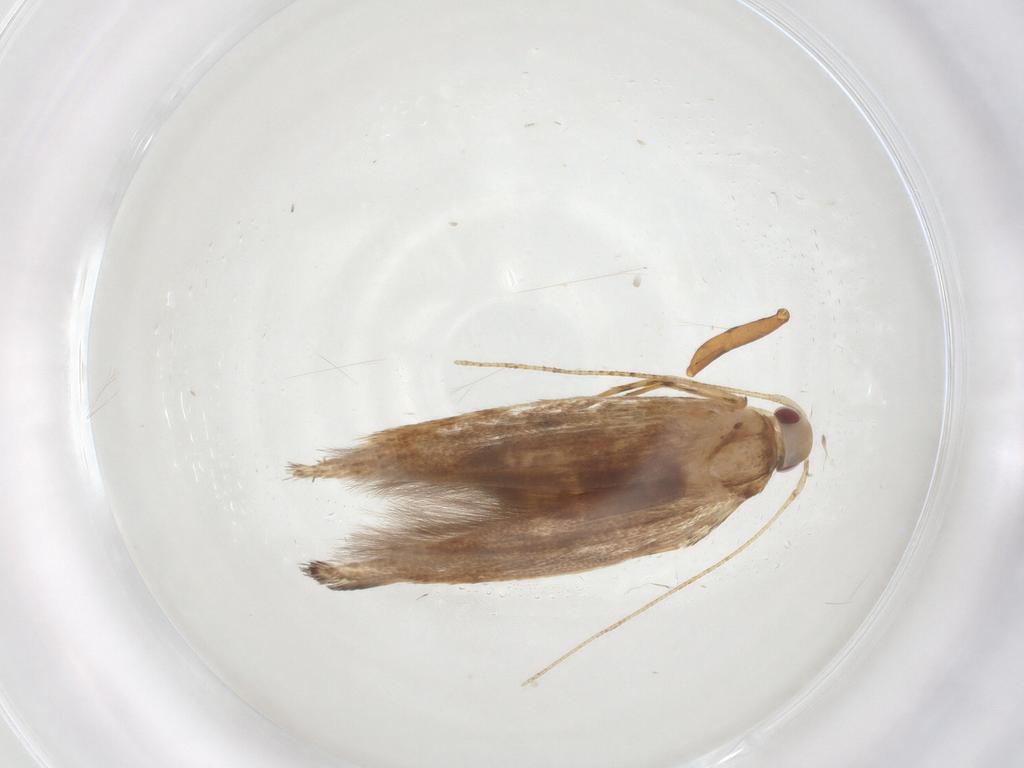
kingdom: Animalia
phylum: Arthropoda
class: Insecta
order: Lepidoptera
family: Cosmopterigidae
